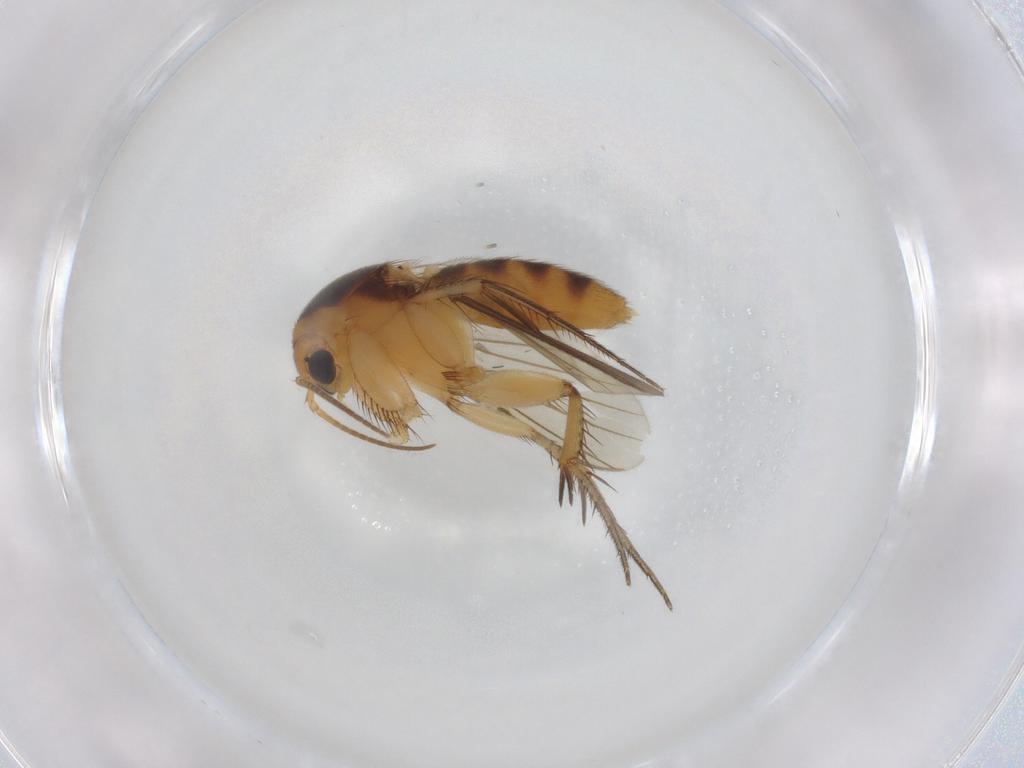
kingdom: Animalia
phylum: Arthropoda
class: Insecta
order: Diptera
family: Mycetophilidae
